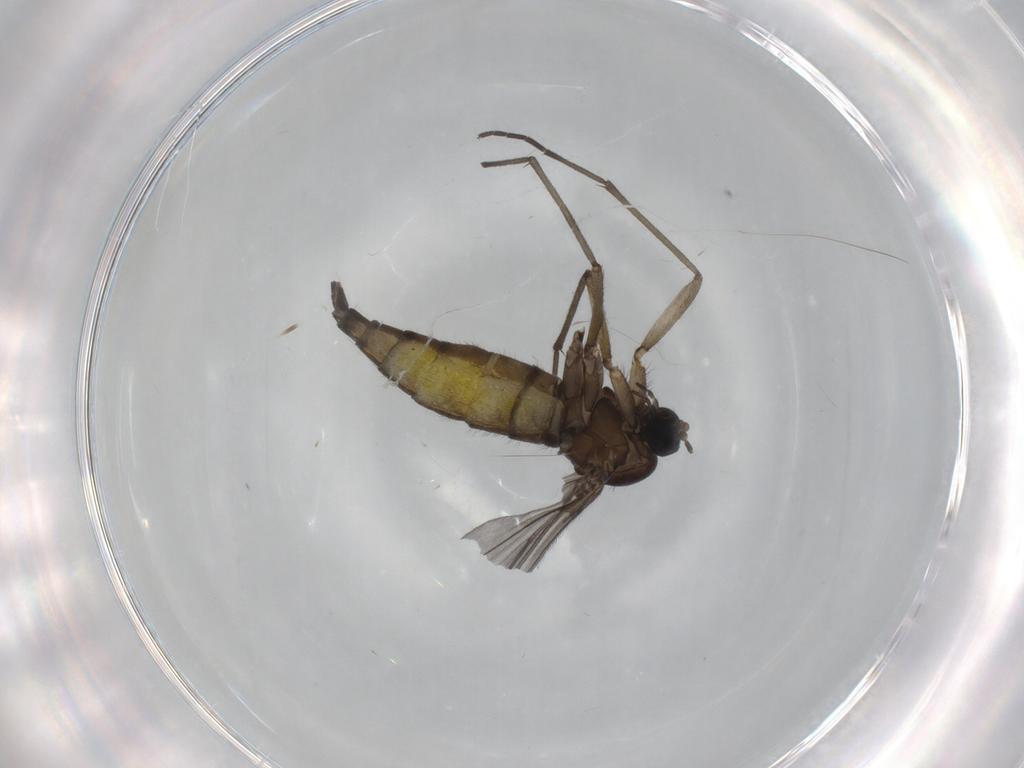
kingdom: Animalia
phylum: Arthropoda
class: Insecta
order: Diptera
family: Sciaridae
